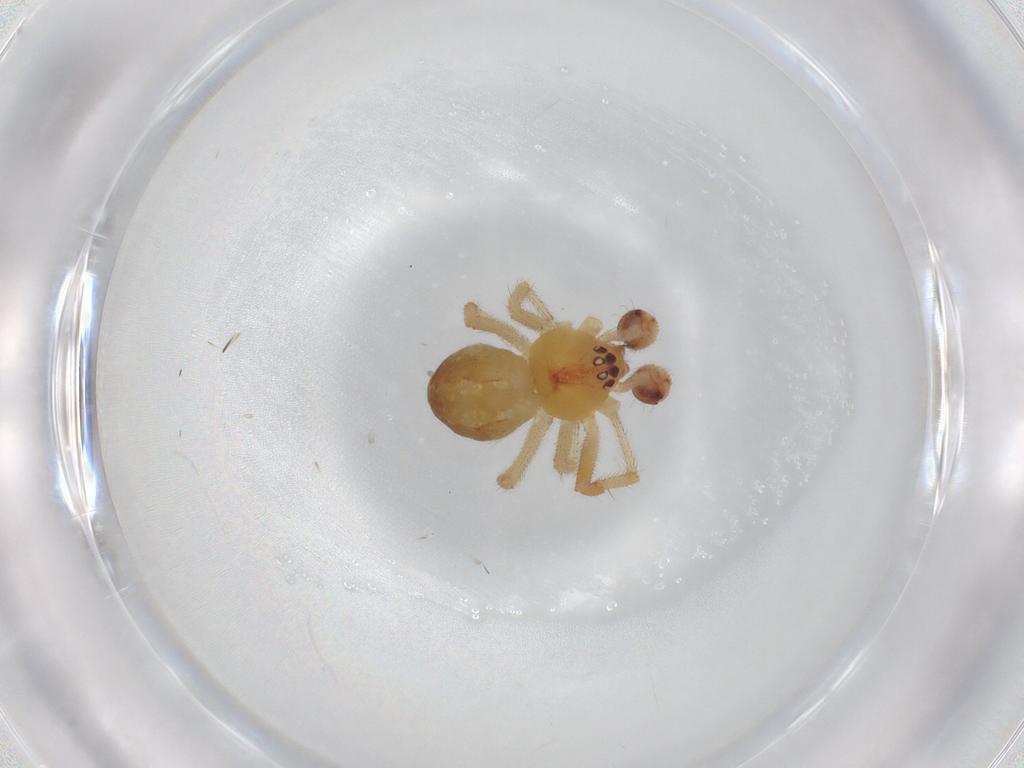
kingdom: Animalia
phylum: Arthropoda
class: Arachnida
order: Araneae
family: Theridiidae
